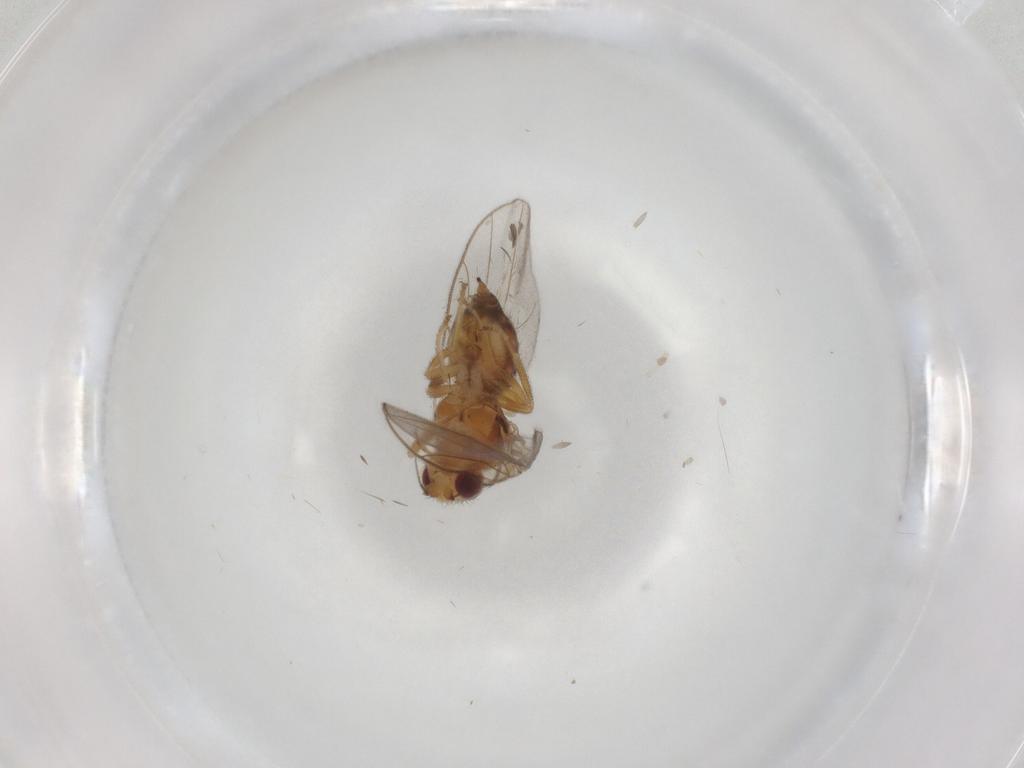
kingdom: Animalia
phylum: Arthropoda
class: Insecta
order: Diptera
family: Chloropidae
